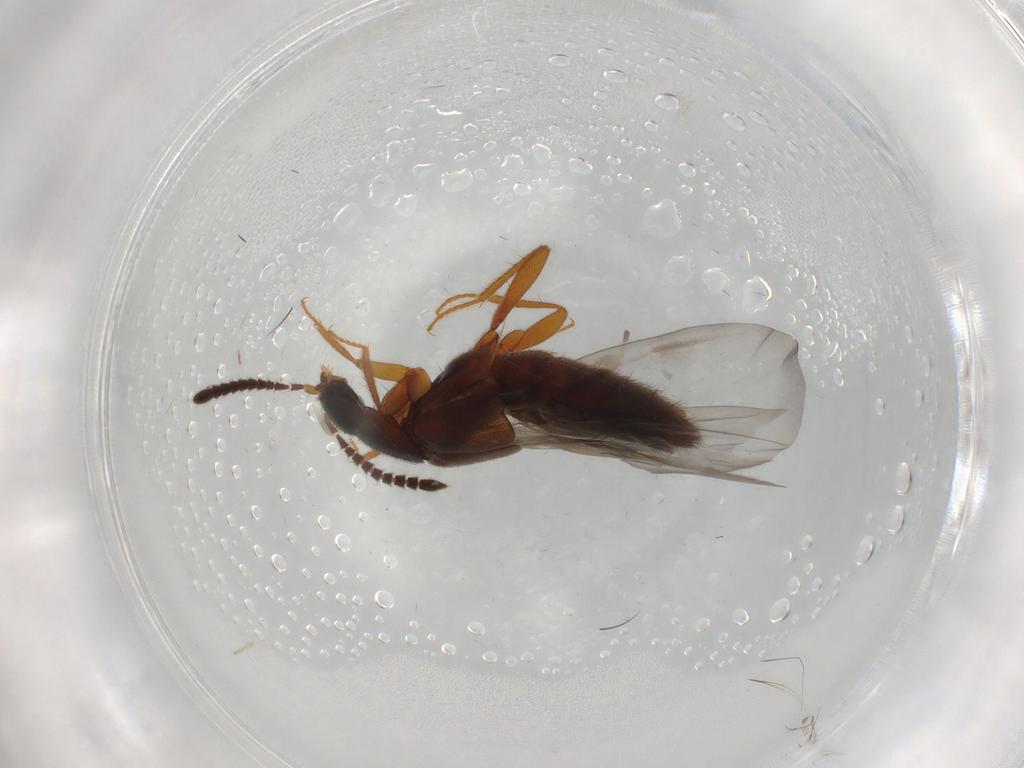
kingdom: Animalia
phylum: Arthropoda
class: Insecta
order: Coleoptera
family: Staphylinidae
